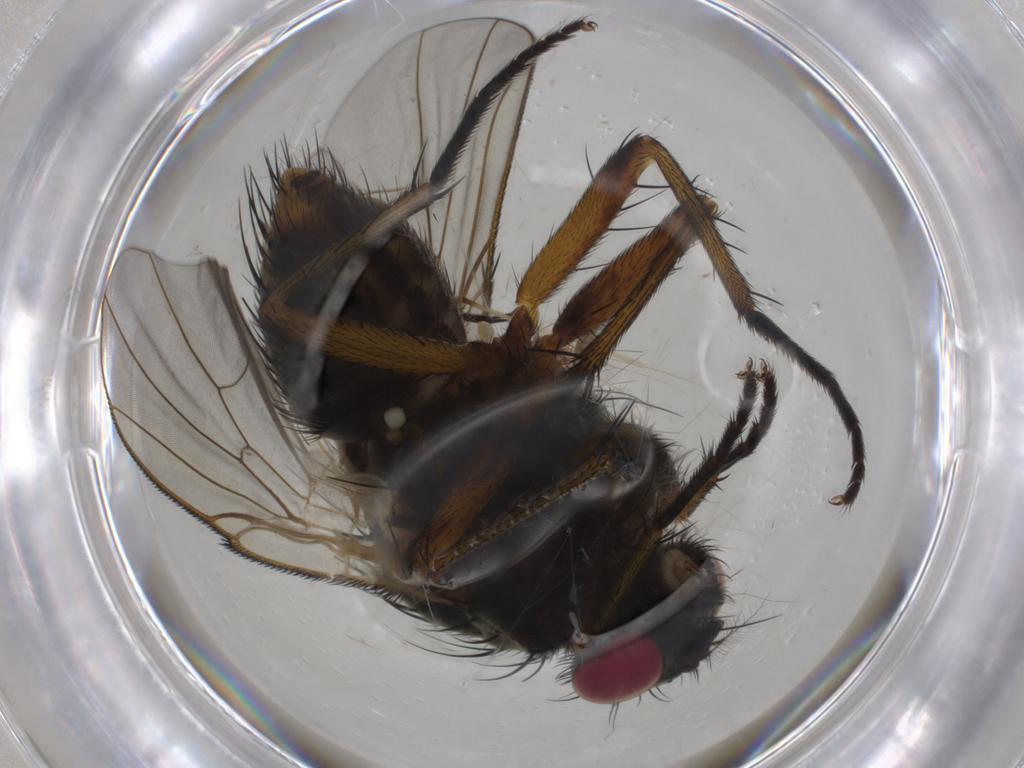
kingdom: Animalia
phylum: Arthropoda
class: Insecta
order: Diptera
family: Muscidae
